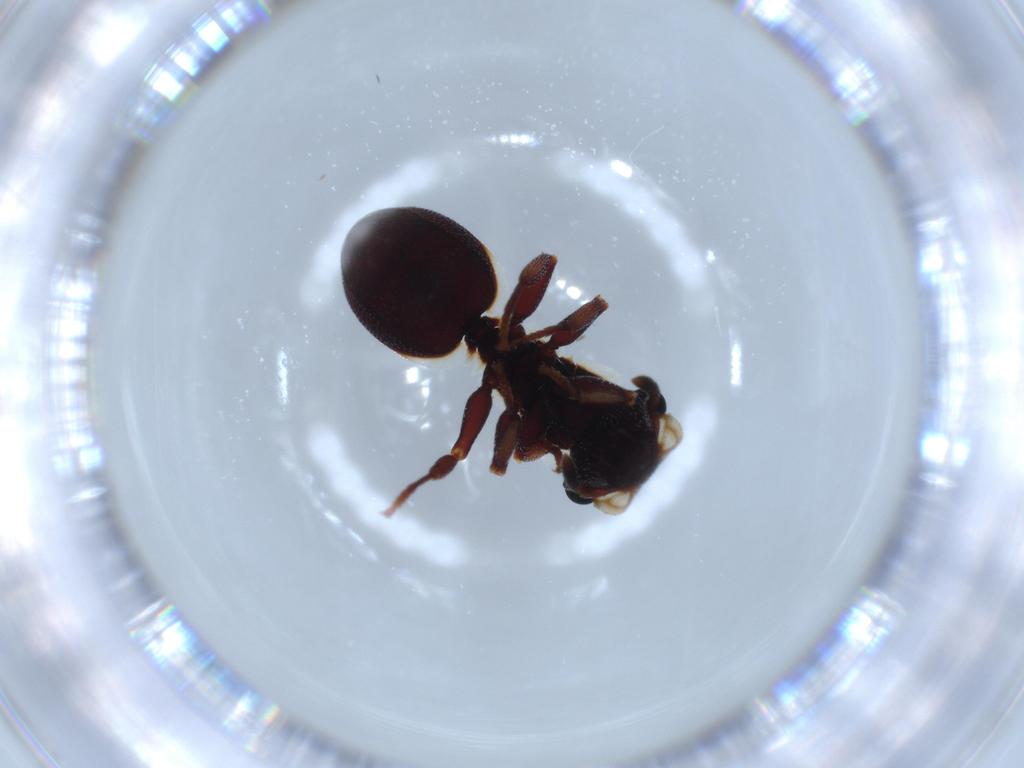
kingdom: Animalia
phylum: Arthropoda
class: Insecta
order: Hymenoptera
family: Formicidae
